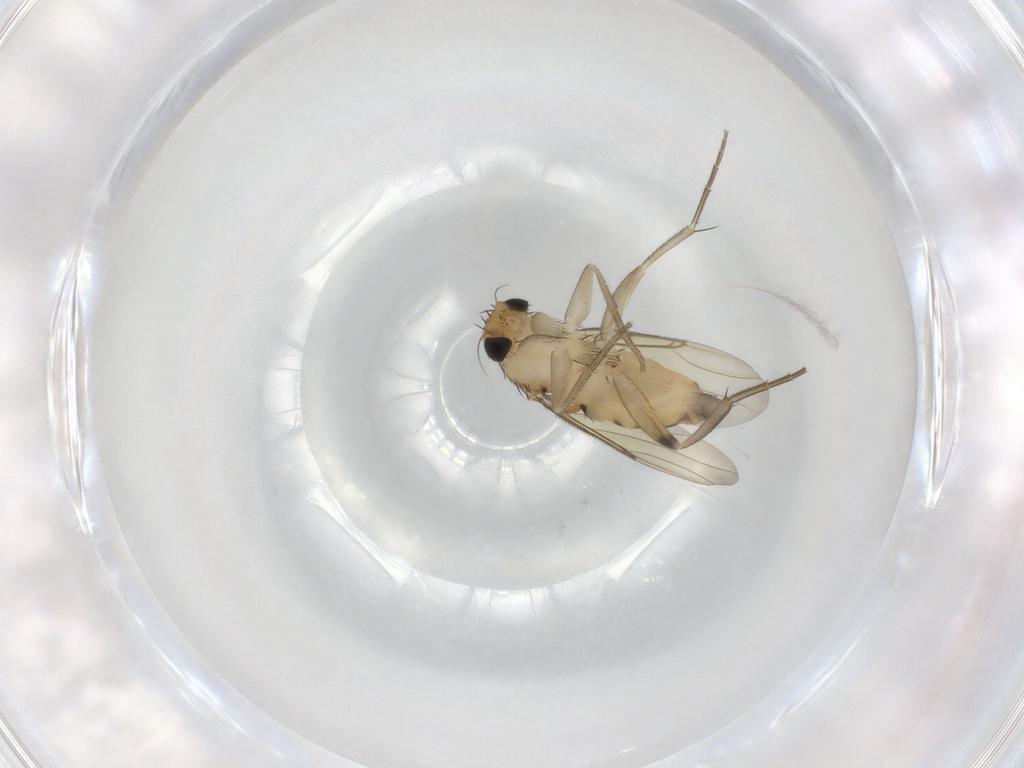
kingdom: Animalia
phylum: Arthropoda
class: Insecta
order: Diptera
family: Phoridae
